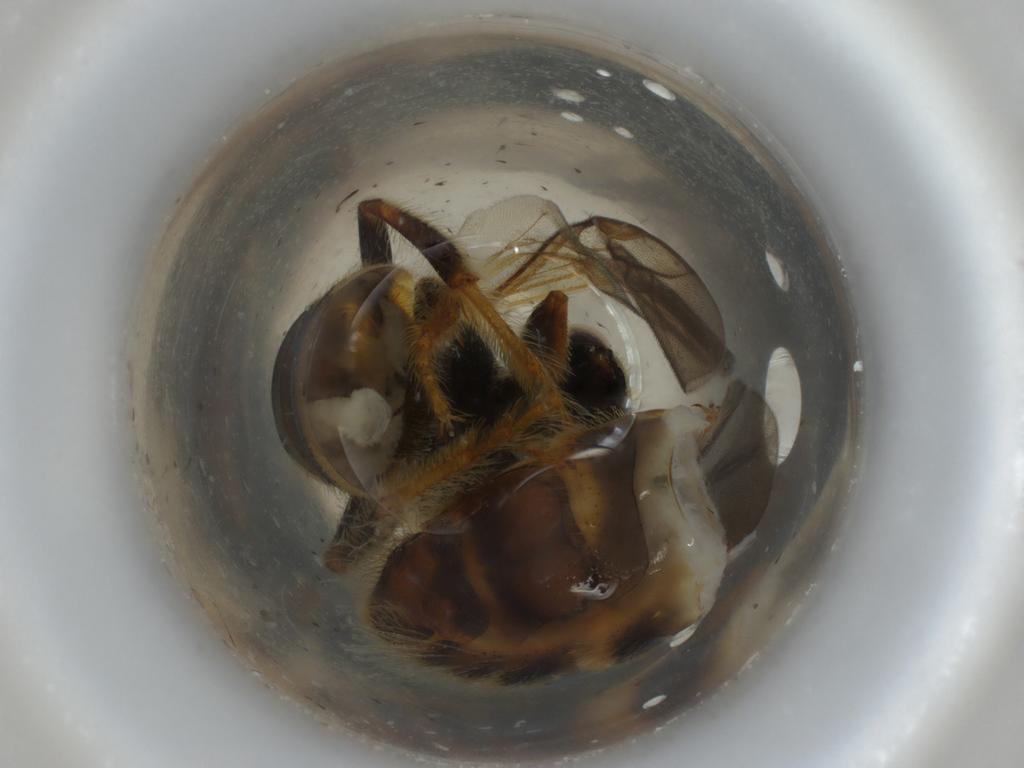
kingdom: Animalia
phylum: Arthropoda
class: Insecta
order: Hymenoptera
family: Halictidae
